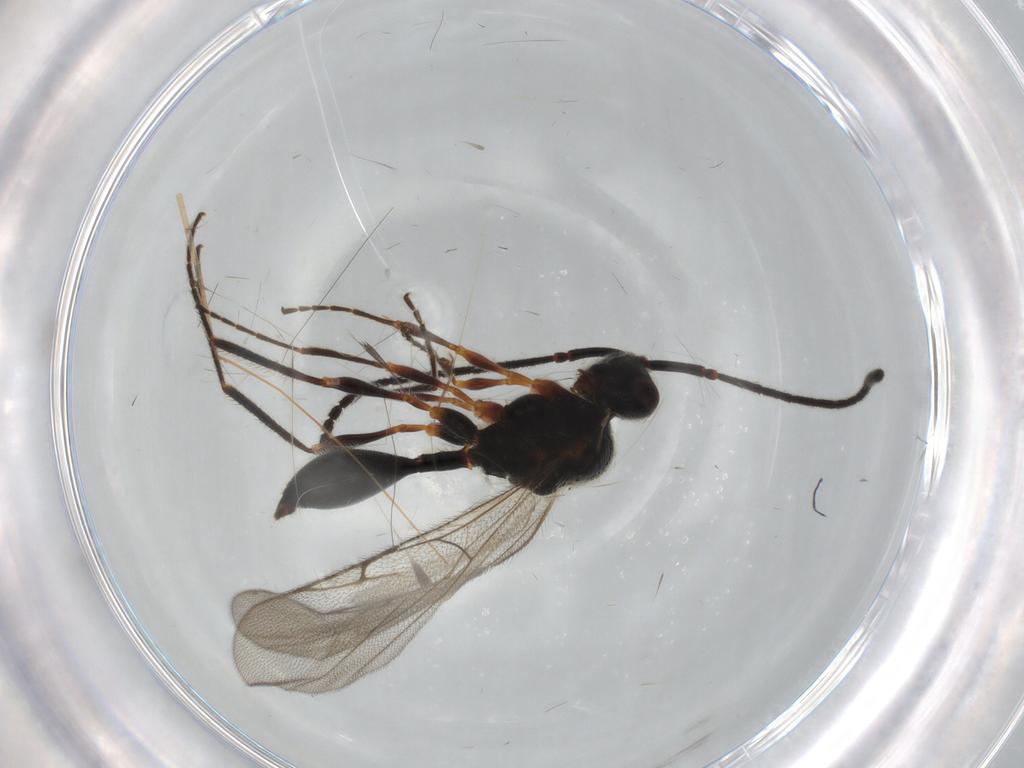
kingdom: Animalia
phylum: Arthropoda
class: Insecta
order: Hymenoptera
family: Diapriidae
